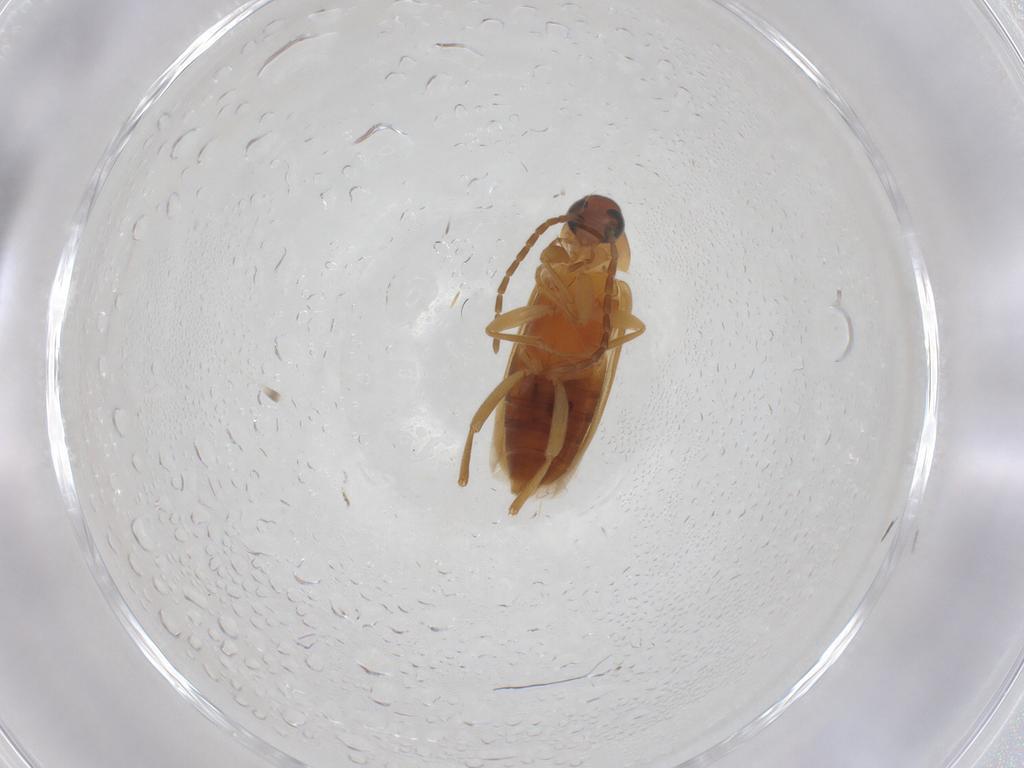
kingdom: Animalia
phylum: Arthropoda
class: Insecta
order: Coleoptera
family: Scraptiidae
